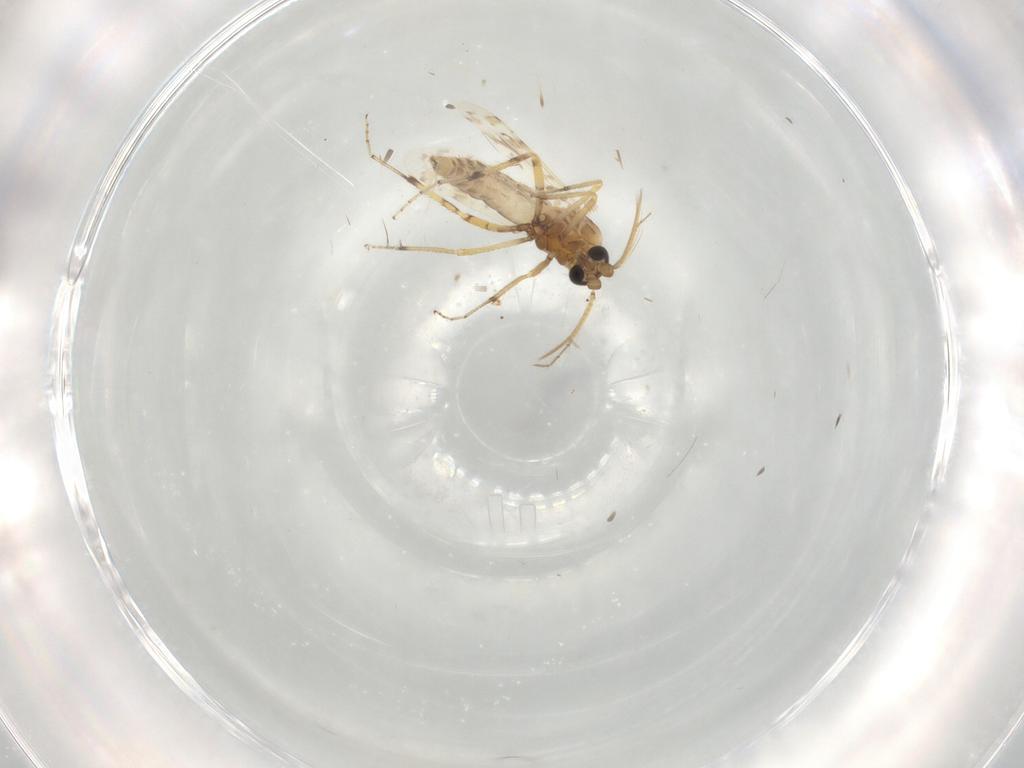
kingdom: Animalia
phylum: Arthropoda
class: Insecta
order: Diptera
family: Ceratopogonidae
